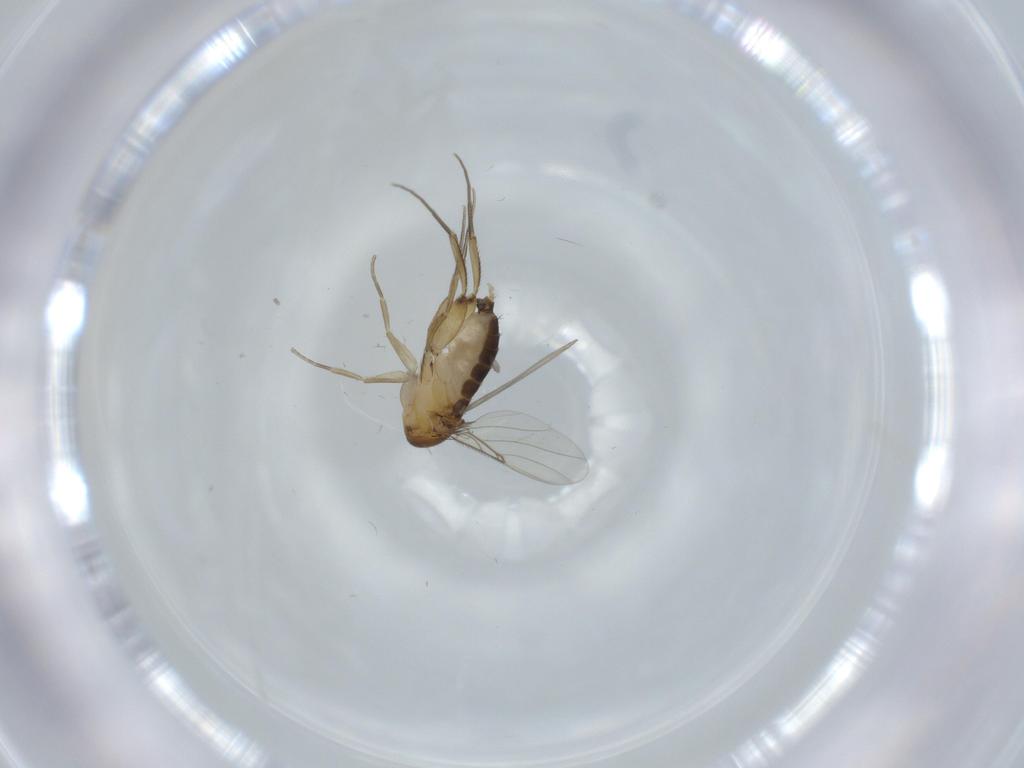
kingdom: Animalia
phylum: Arthropoda
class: Insecta
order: Diptera
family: Phoridae
